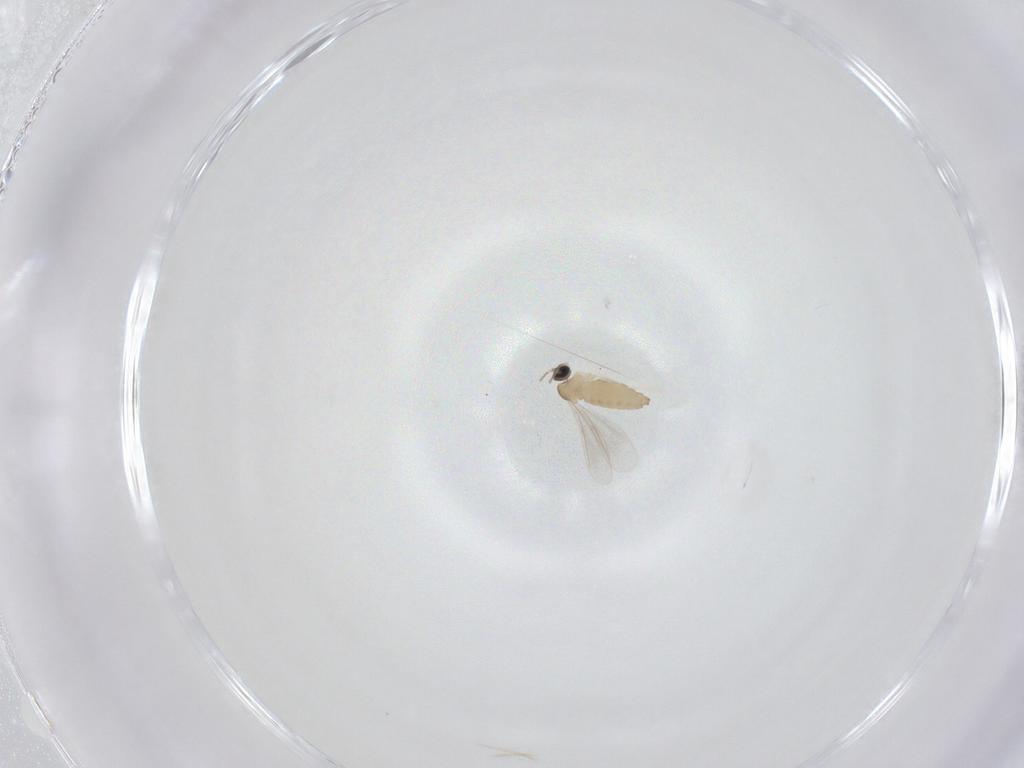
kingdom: Animalia
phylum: Arthropoda
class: Insecta
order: Diptera
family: Cecidomyiidae
